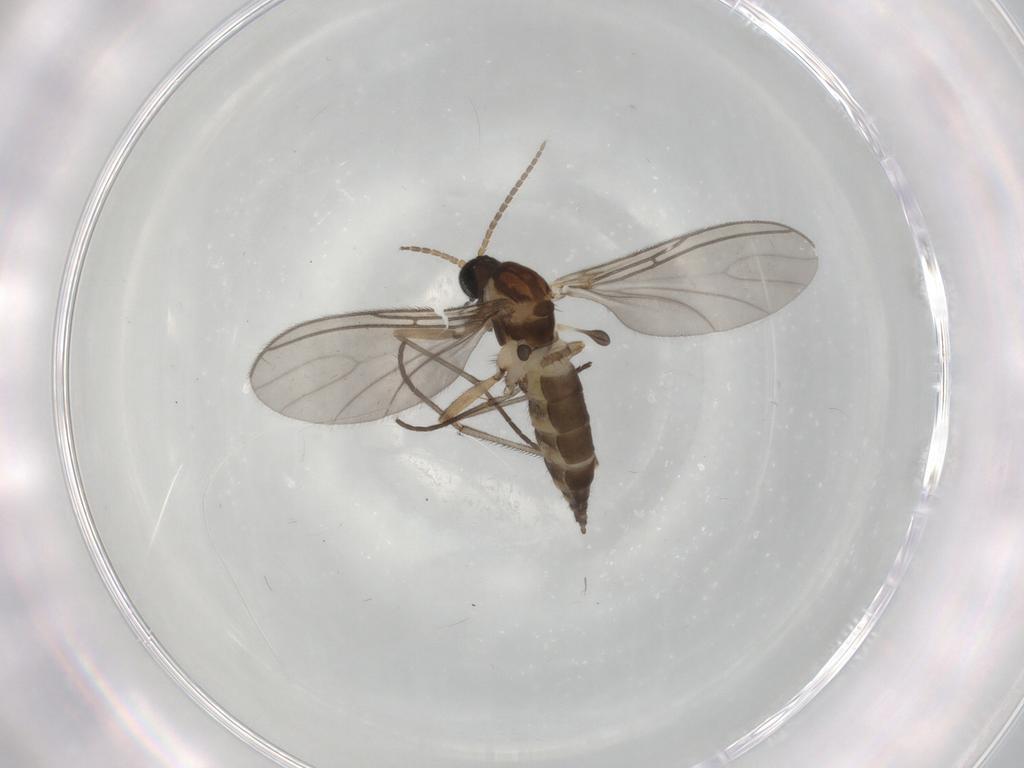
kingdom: Animalia
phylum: Arthropoda
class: Insecta
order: Diptera
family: Sciaridae
